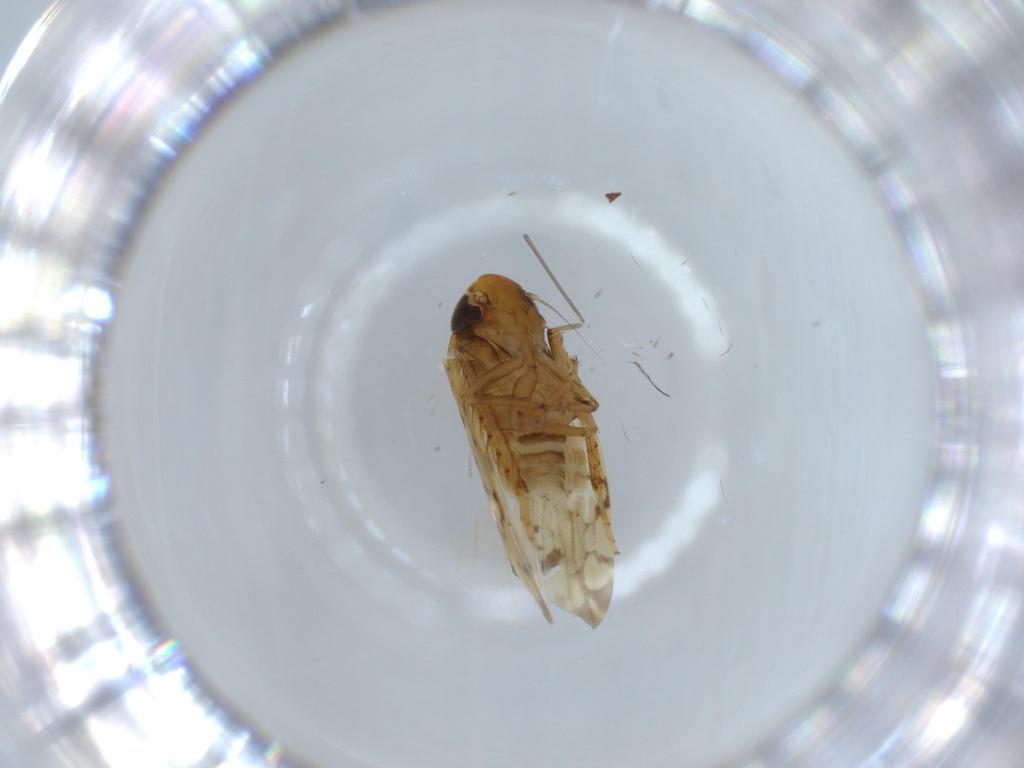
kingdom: Animalia
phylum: Arthropoda
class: Insecta
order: Hemiptera
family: Cicadellidae
